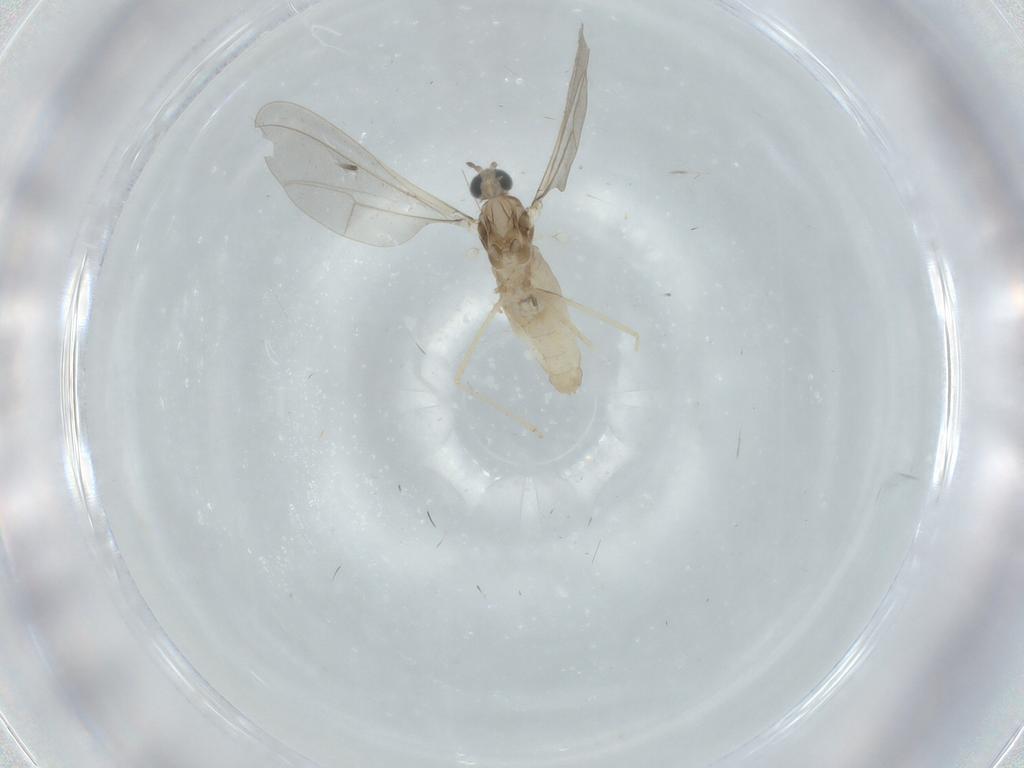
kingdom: Animalia
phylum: Arthropoda
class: Insecta
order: Diptera
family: Cecidomyiidae
